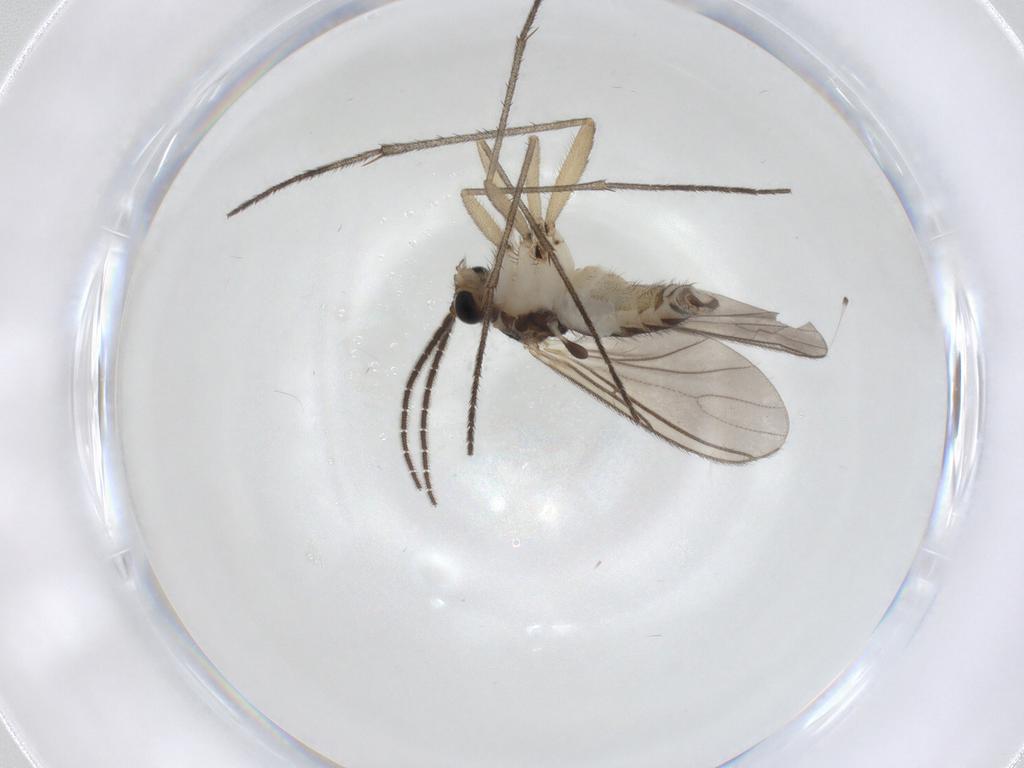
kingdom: Animalia
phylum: Arthropoda
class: Insecta
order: Diptera
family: Sciaridae
